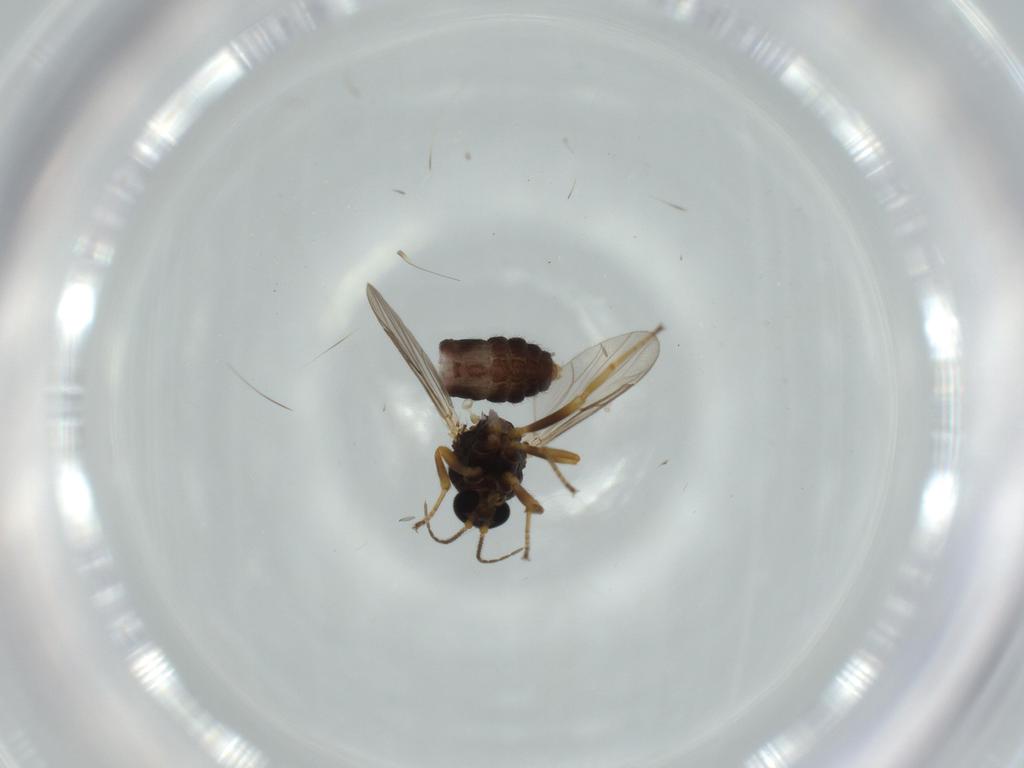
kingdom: Animalia
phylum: Arthropoda
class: Insecta
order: Diptera
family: Ceratopogonidae
